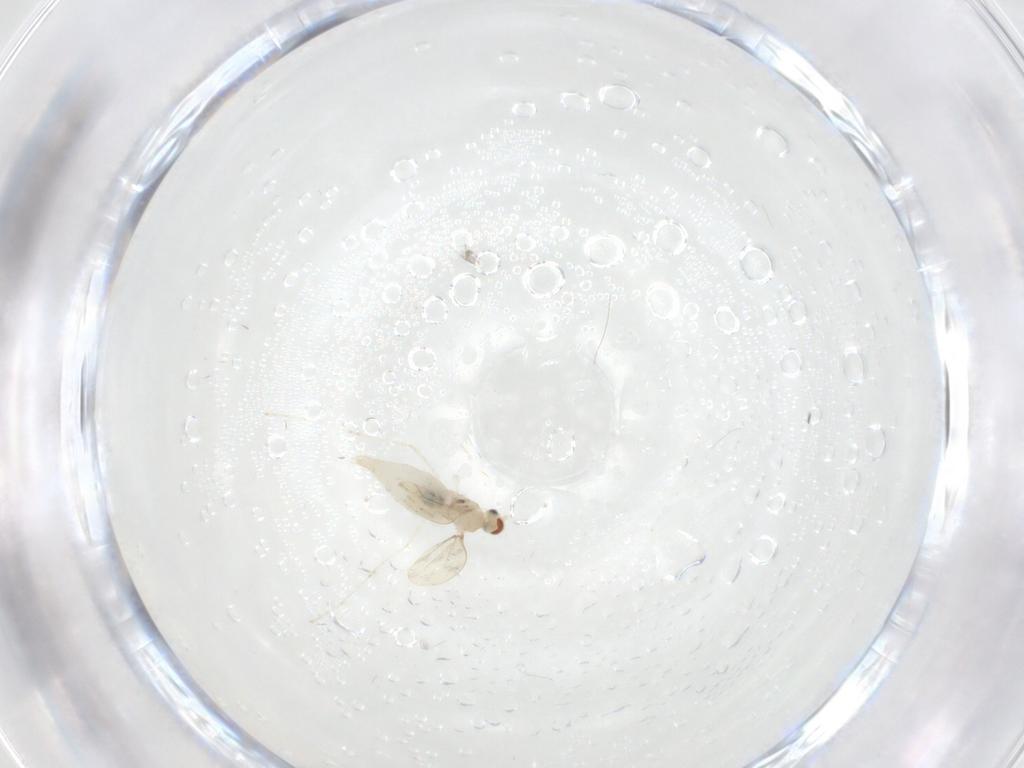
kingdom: Animalia
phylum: Arthropoda
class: Insecta
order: Diptera
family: Cecidomyiidae
